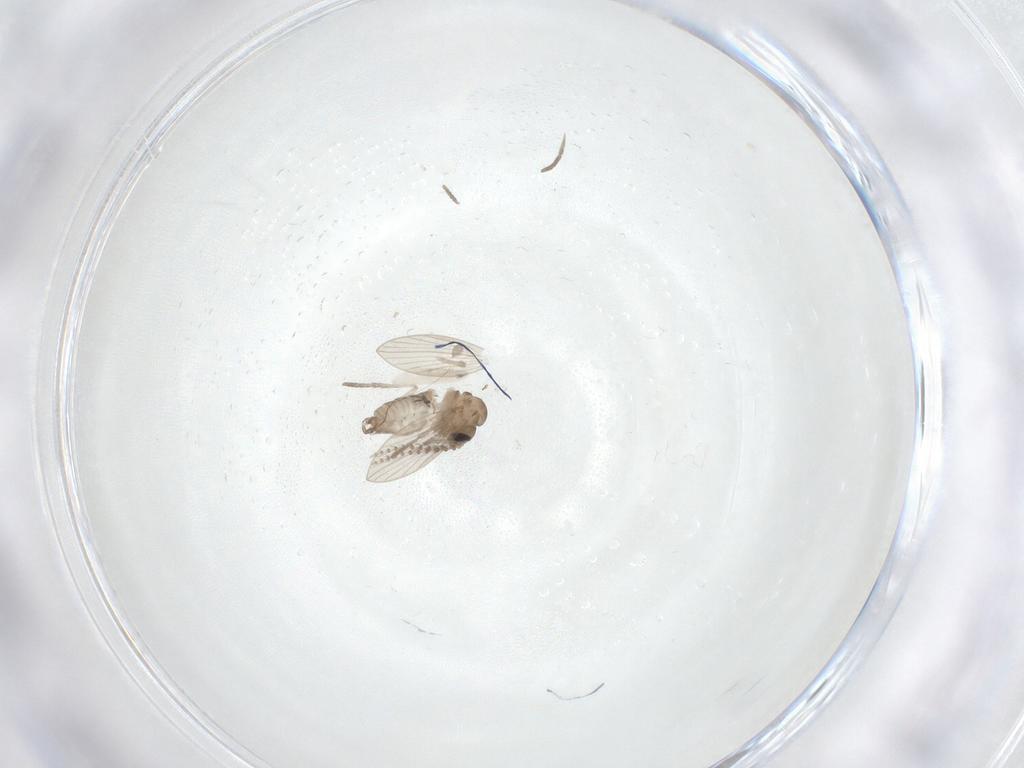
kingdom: Animalia
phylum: Arthropoda
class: Insecta
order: Diptera
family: Psychodidae
